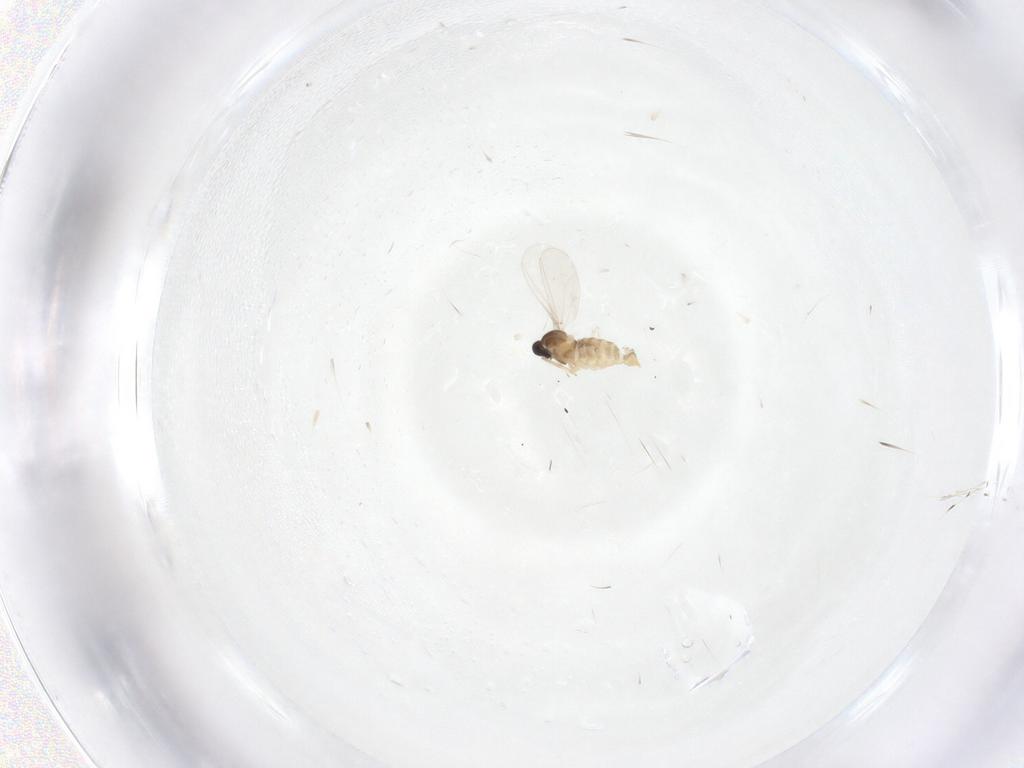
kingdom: Animalia
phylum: Arthropoda
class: Insecta
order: Diptera
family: Cecidomyiidae
